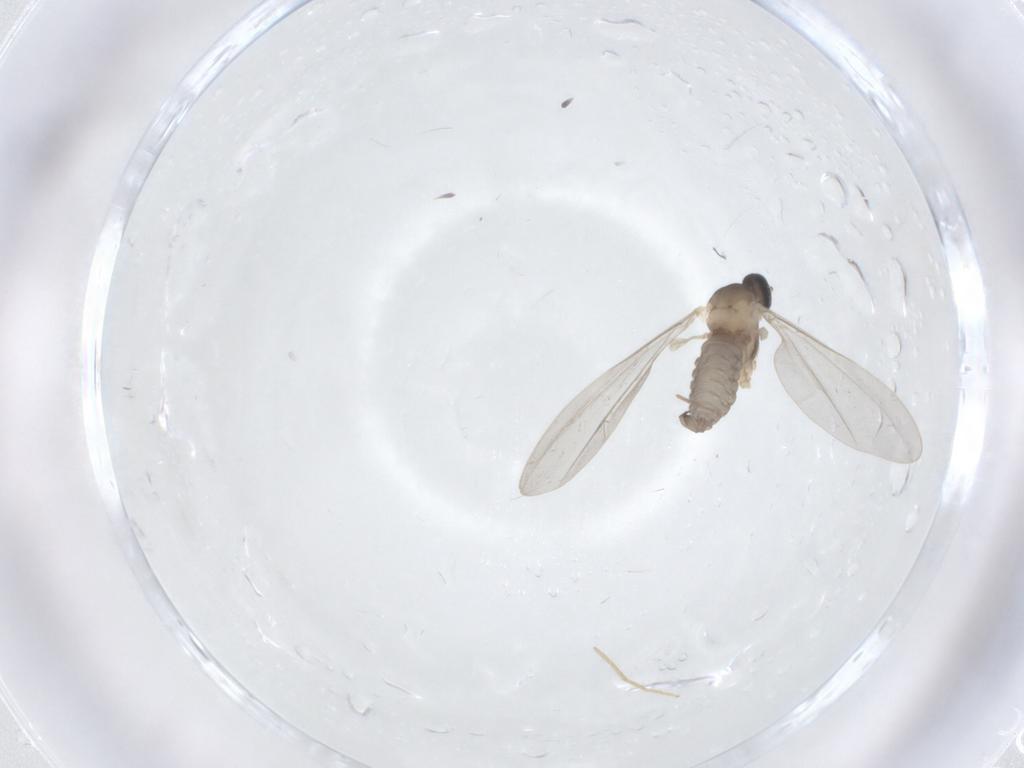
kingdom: Animalia
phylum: Arthropoda
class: Insecta
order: Diptera
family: Cecidomyiidae
